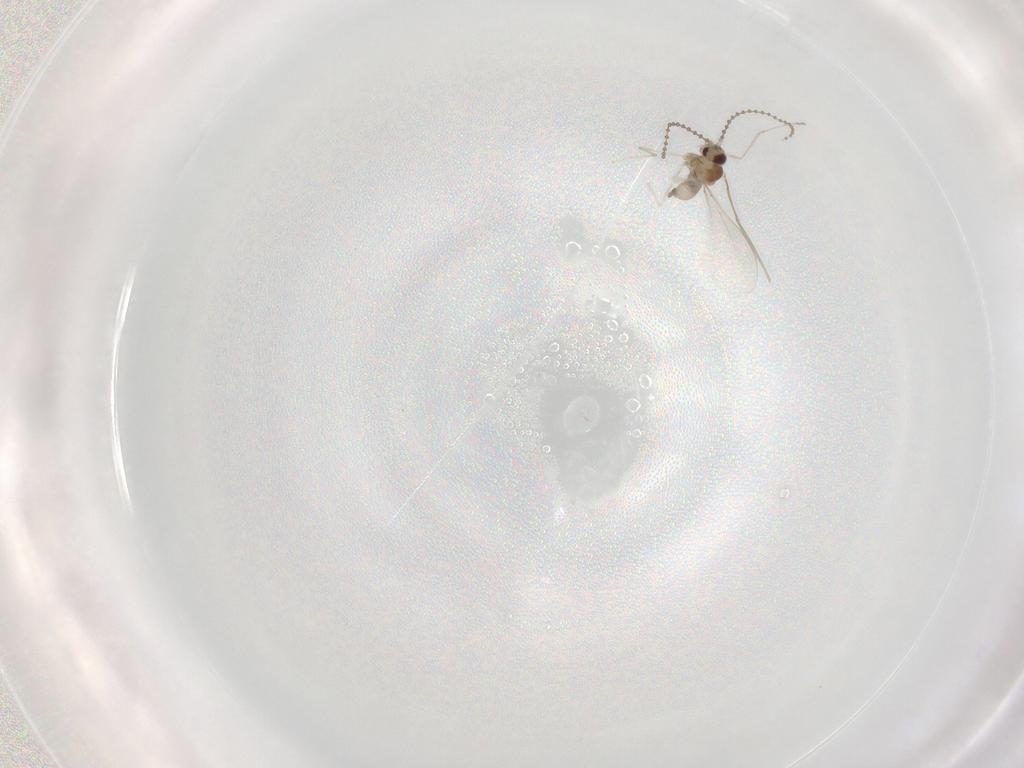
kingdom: Animalia
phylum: Arthropoda
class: Insecta
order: Diptera
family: Cecidomyiidae
